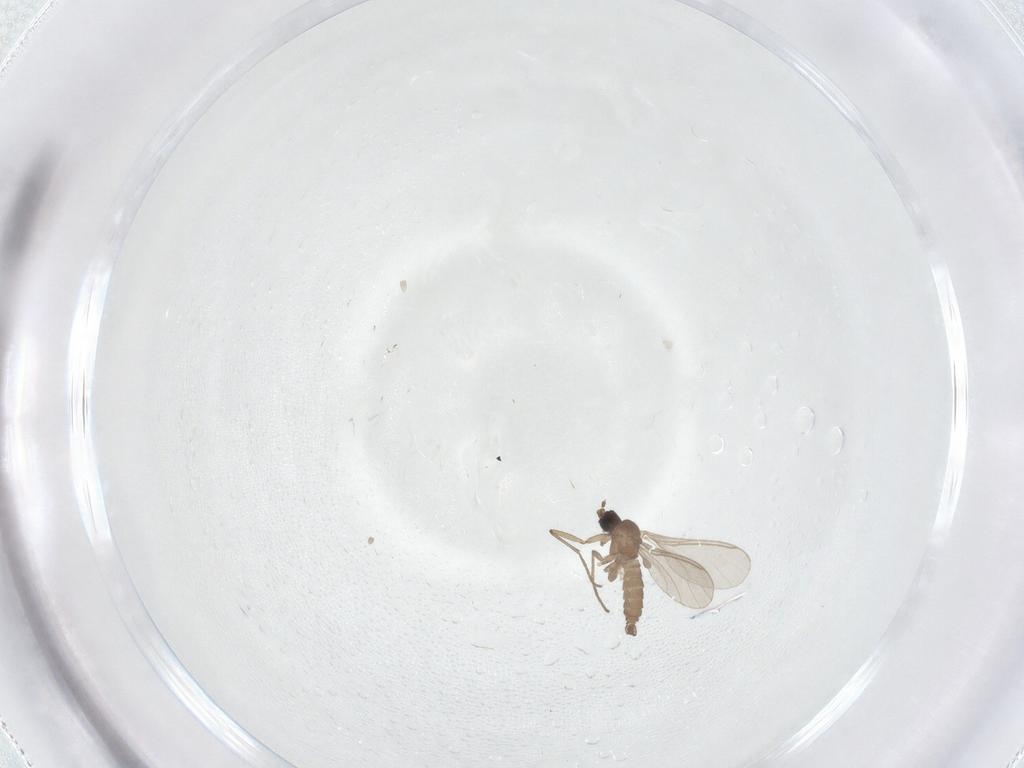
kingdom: Animalia
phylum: Arthropoda
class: Insecta
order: Diptera
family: Sciaridae
